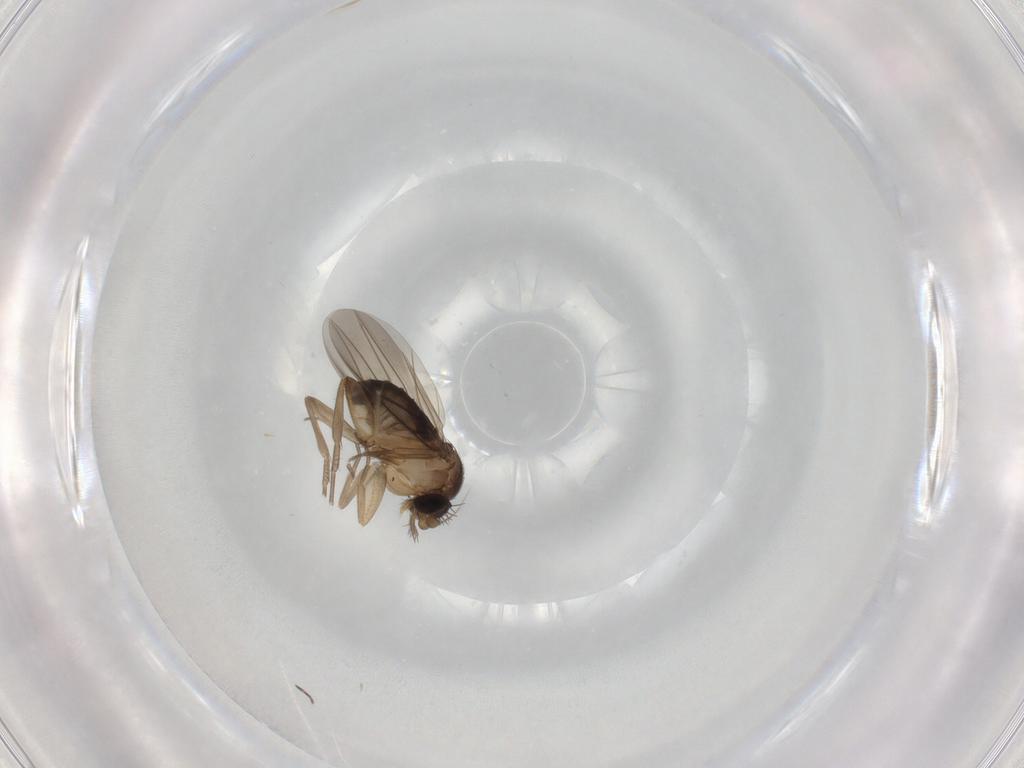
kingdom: Animalia
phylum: Arthropoda
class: Insecta
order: Diptera
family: Phoridae
